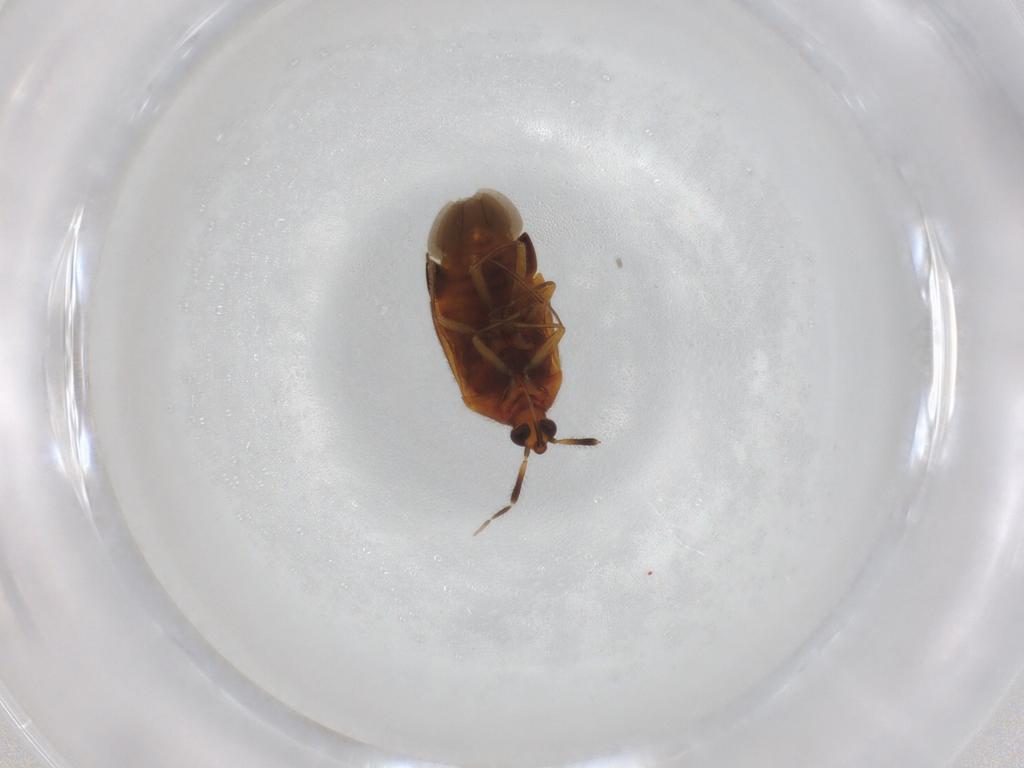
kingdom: Animalia
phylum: Arthropoda
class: Insecta
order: Hemiptera
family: Anthocoridae
